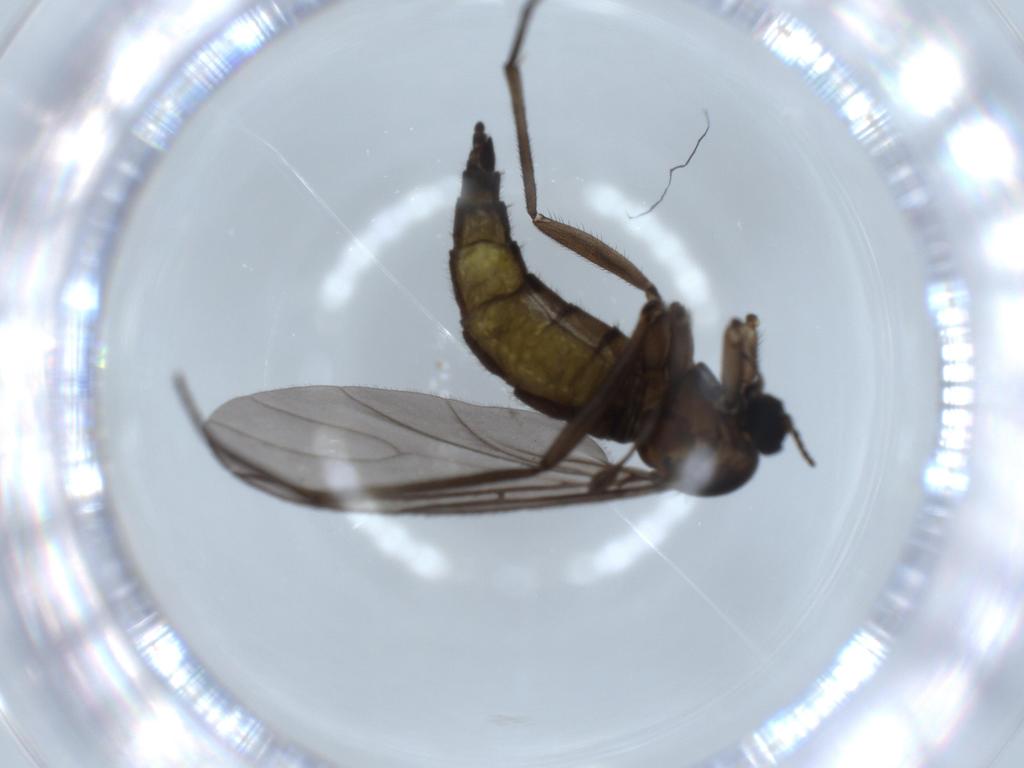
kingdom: Animalia
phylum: Arthropoda
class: Insecta
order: Diptera
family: Sciaridae
